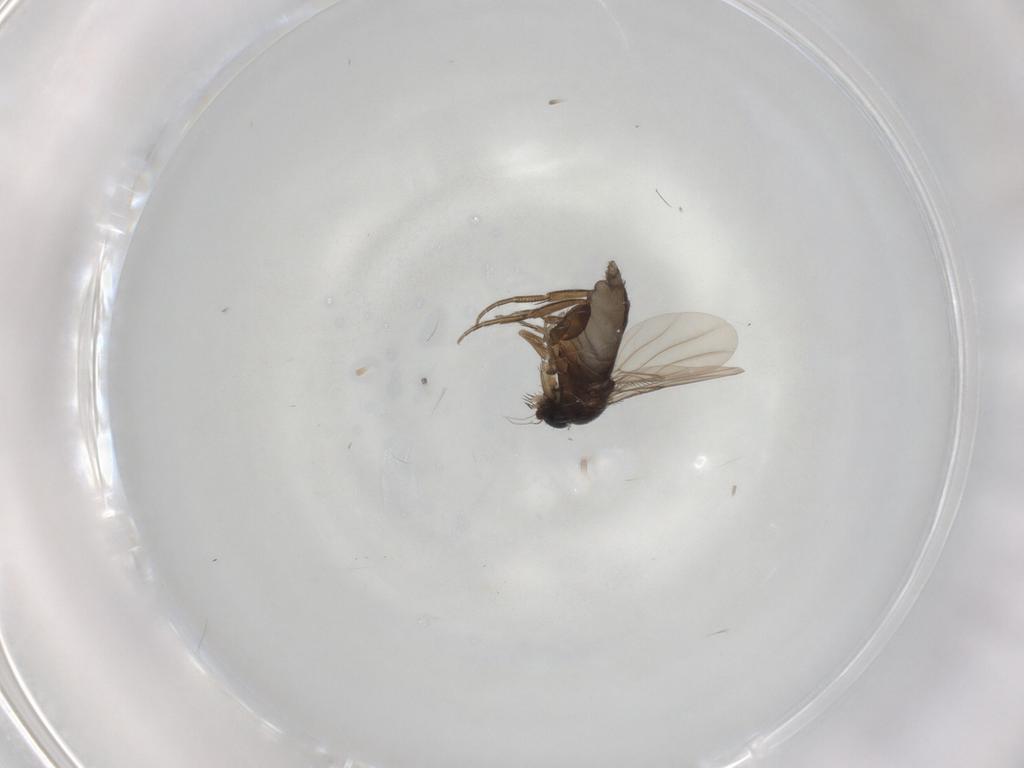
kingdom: Animalia
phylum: Arthropoda
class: Insecta
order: Diptera
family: Phoridae
